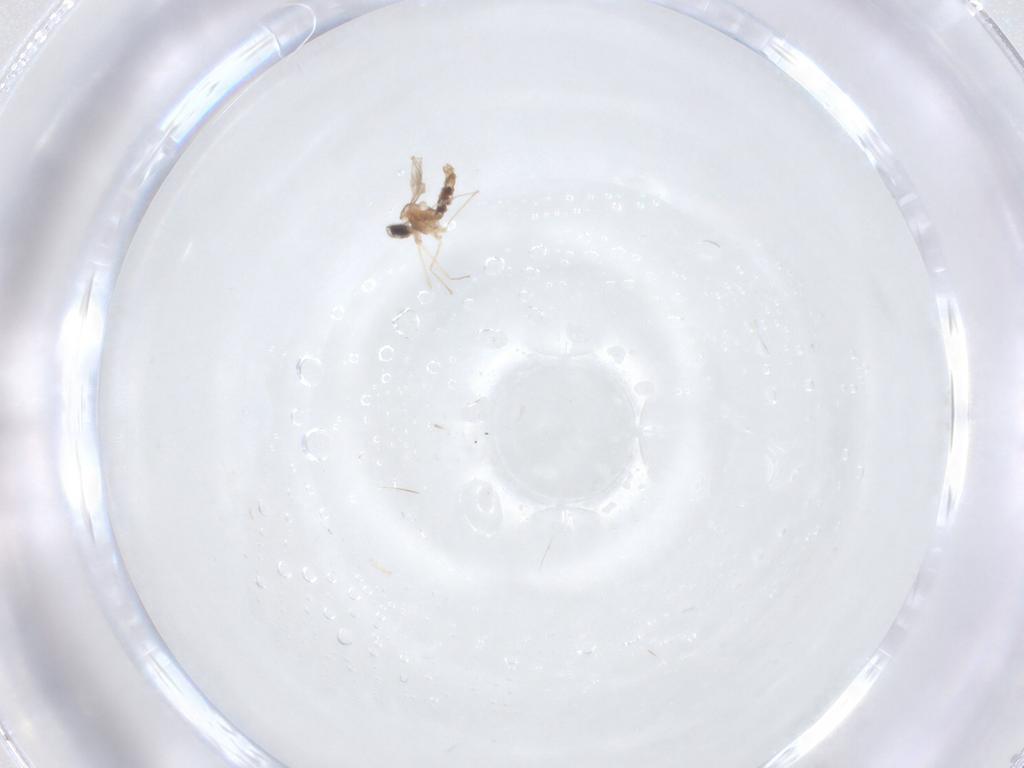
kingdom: Animalia
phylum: Arthropoda
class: Insecta
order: Diptera
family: Cecidomyiidae
